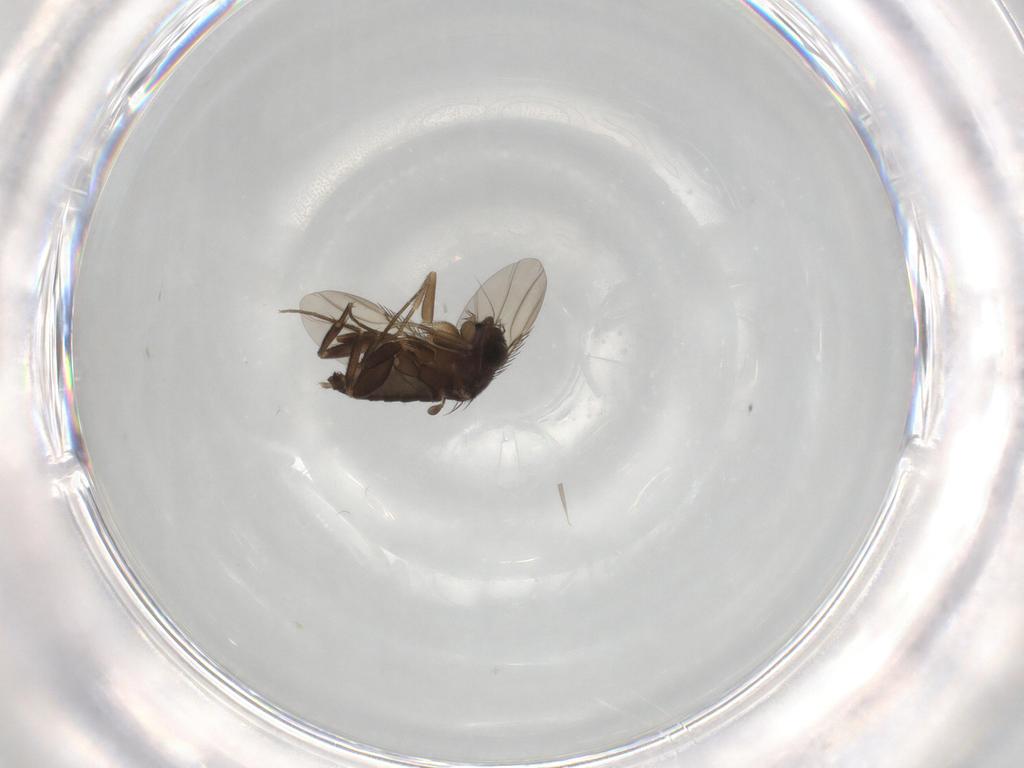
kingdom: Animalia
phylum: Arthropoda
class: Insecta
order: Diptera
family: Phoridae
